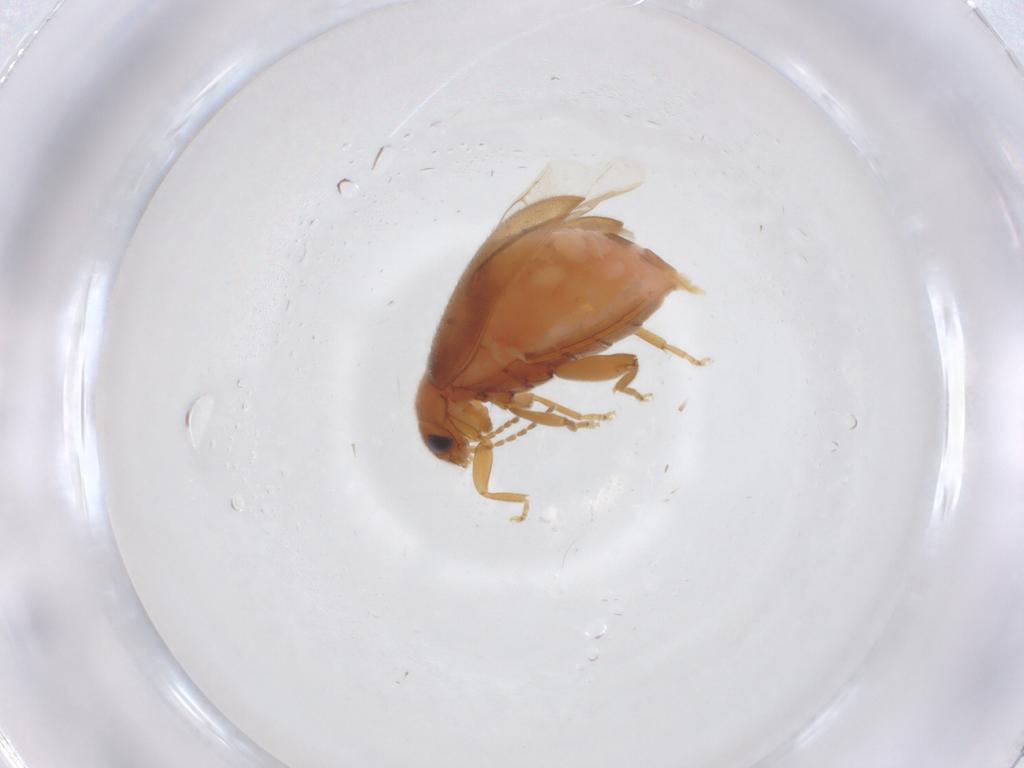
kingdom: Animalia
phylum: Arthropoda
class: Insecta
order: Coleoptera
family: Scirtidae
